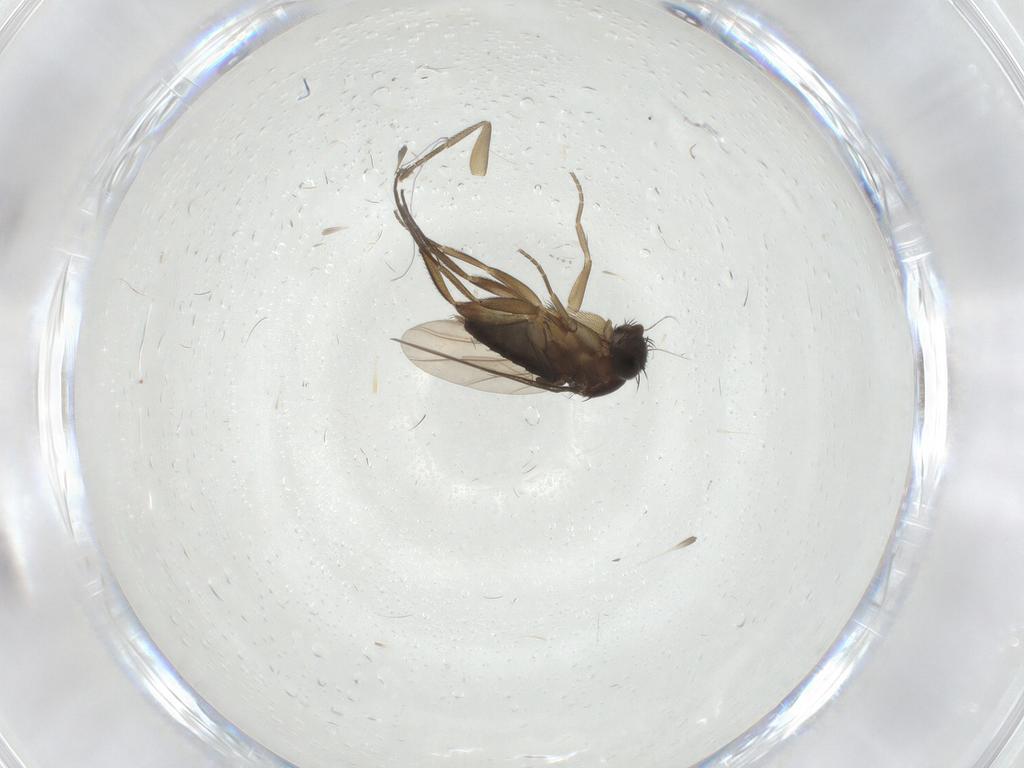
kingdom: Animalia
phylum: Arthropoda
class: Insecta
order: Diptera
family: Phoridae
